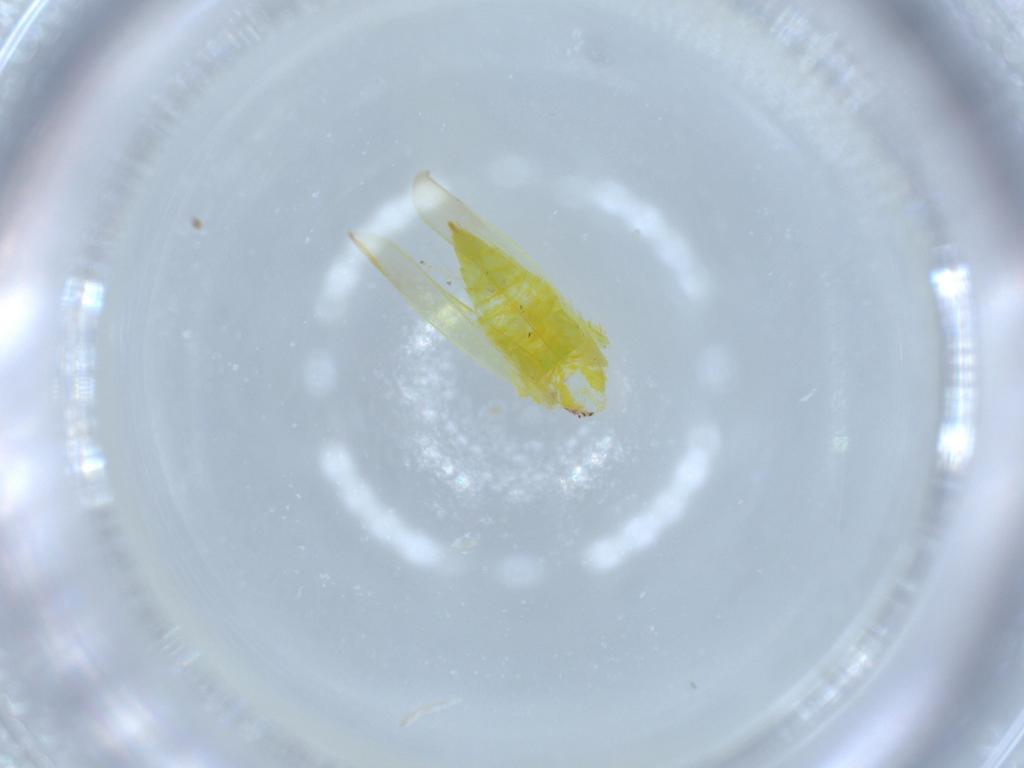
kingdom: Animalia
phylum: Arthropoda
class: Insecta
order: Hemiptera
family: Cicadellidae
